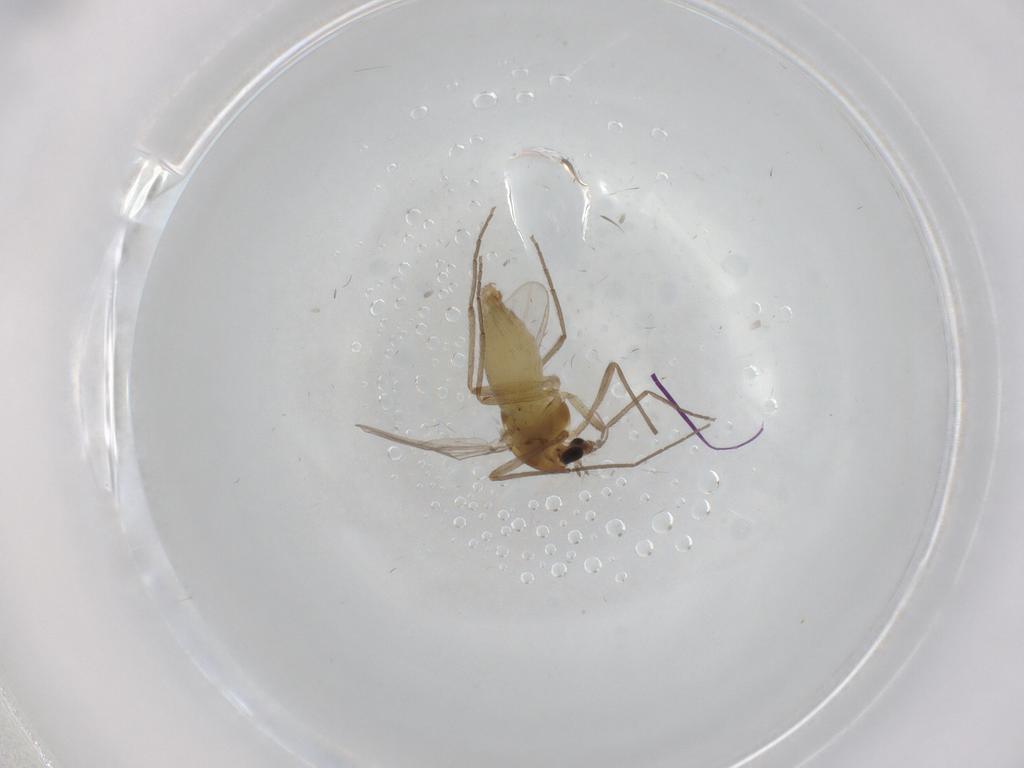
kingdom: Animalia
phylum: Arthropoda
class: Insecta
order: Diptera
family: Chironomidae
